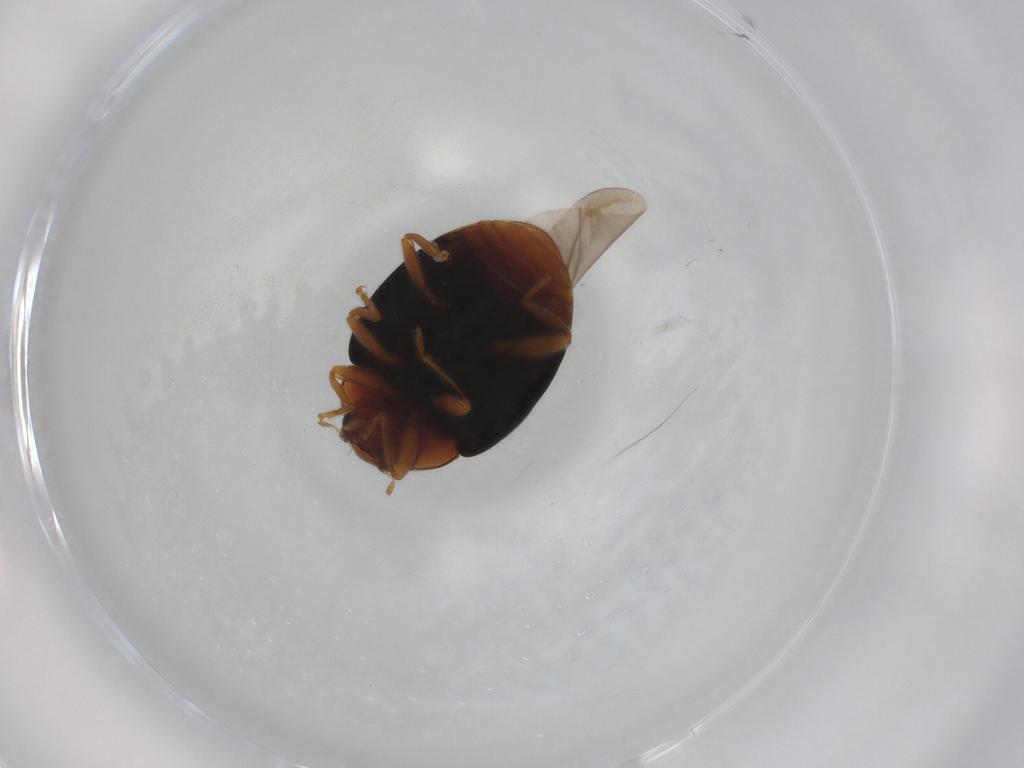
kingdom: Animalia
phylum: Arthropoda
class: Insecta
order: Coleoptera
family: Coccinellidae
